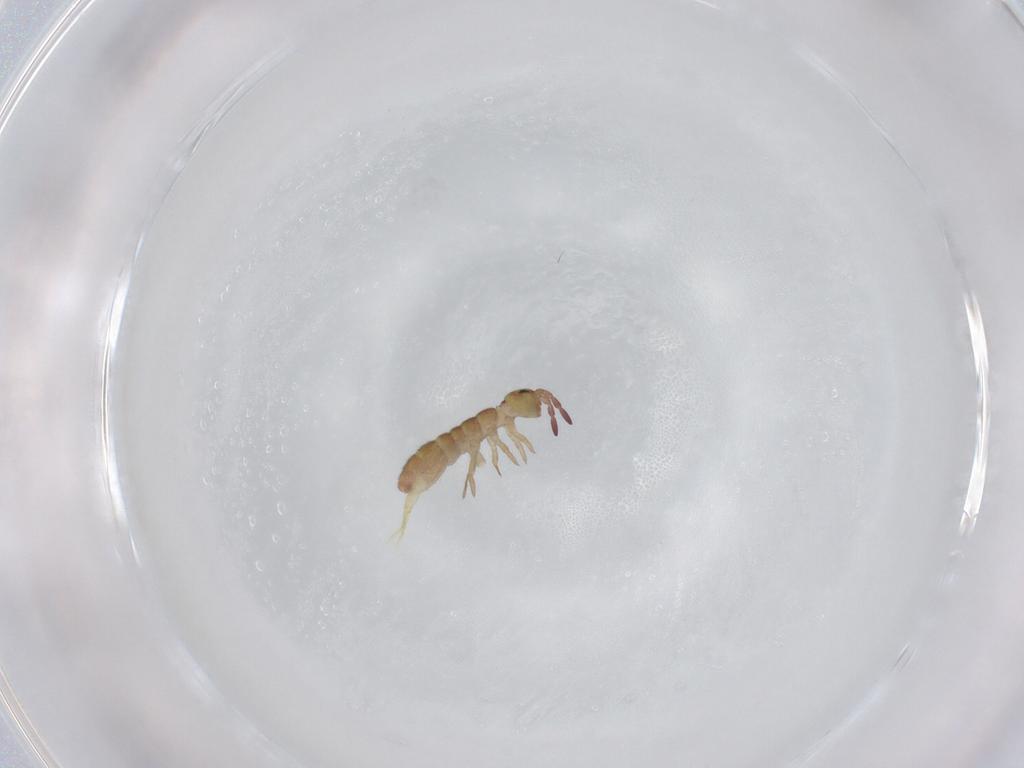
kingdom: Animalia
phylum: Arthropoda
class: Collembola
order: Entomobryomorpha
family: Isotomidae
